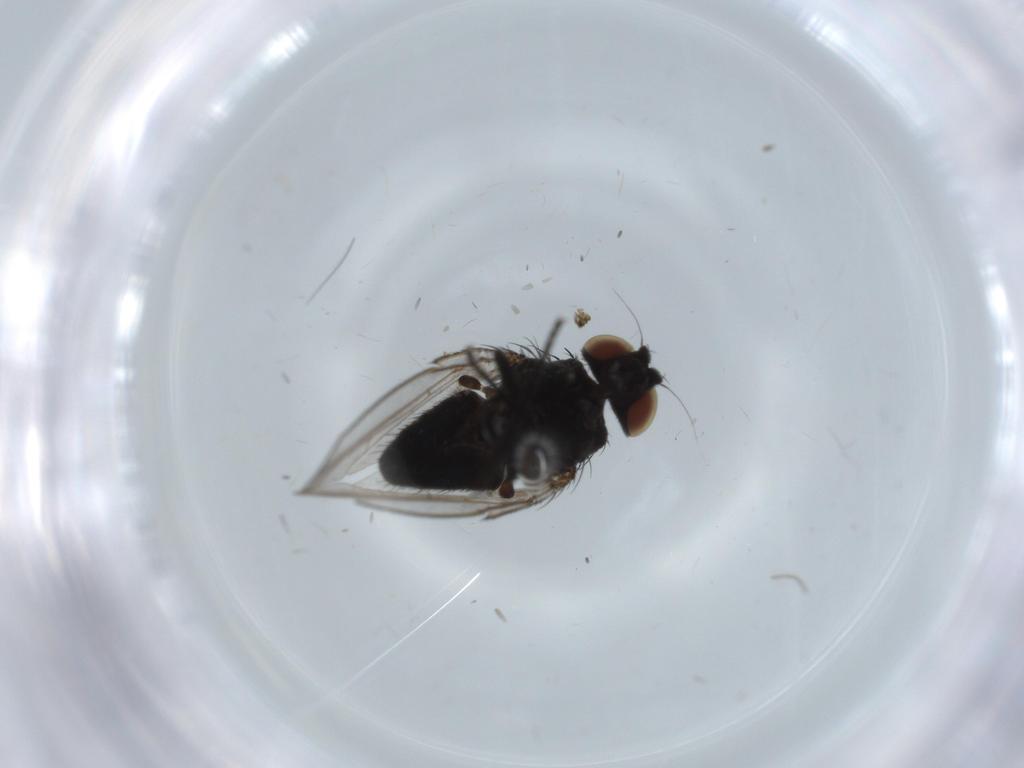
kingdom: Animalia
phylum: Arthropoda
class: Insecta
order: Diptera
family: Milichiidae
